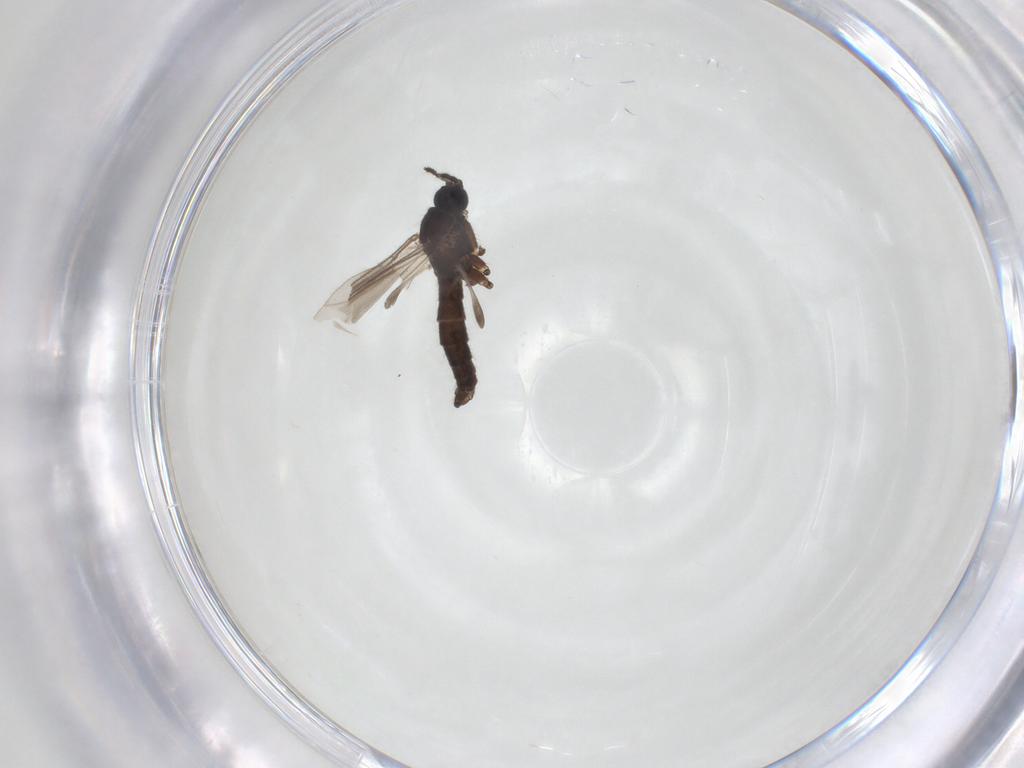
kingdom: Animalia
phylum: Arthropoda
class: Insecta
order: Diptera
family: Sciaridae
